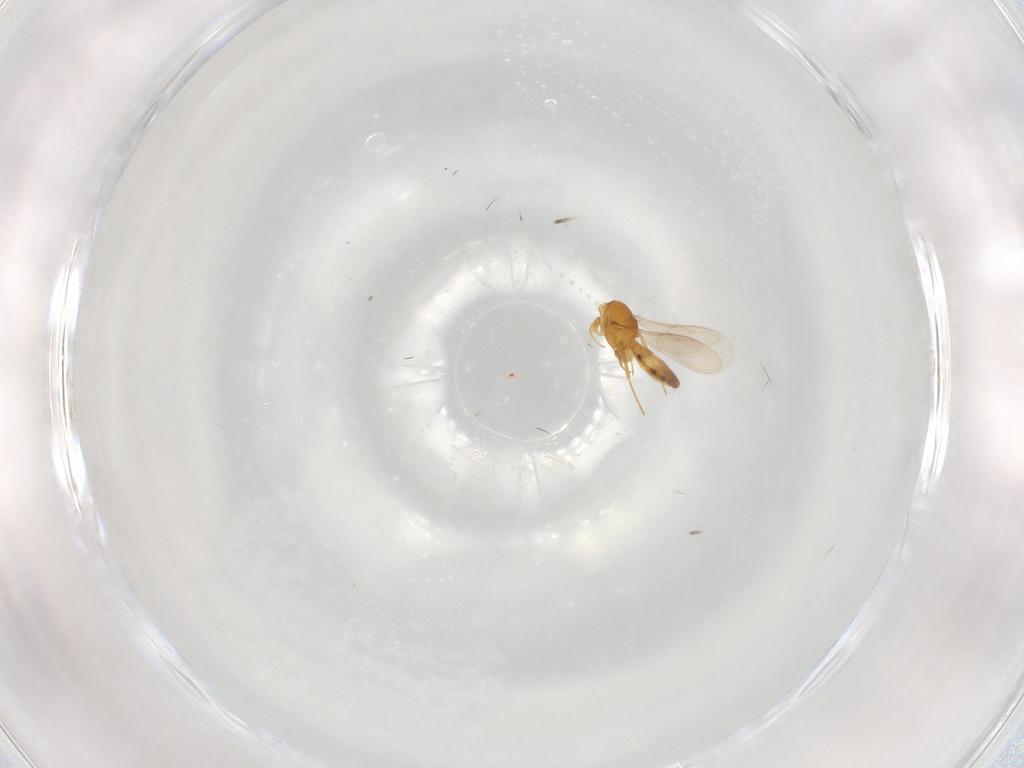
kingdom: Animalia
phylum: Arthropoda
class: Insecta
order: Hymenoptera
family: Scelionidae
